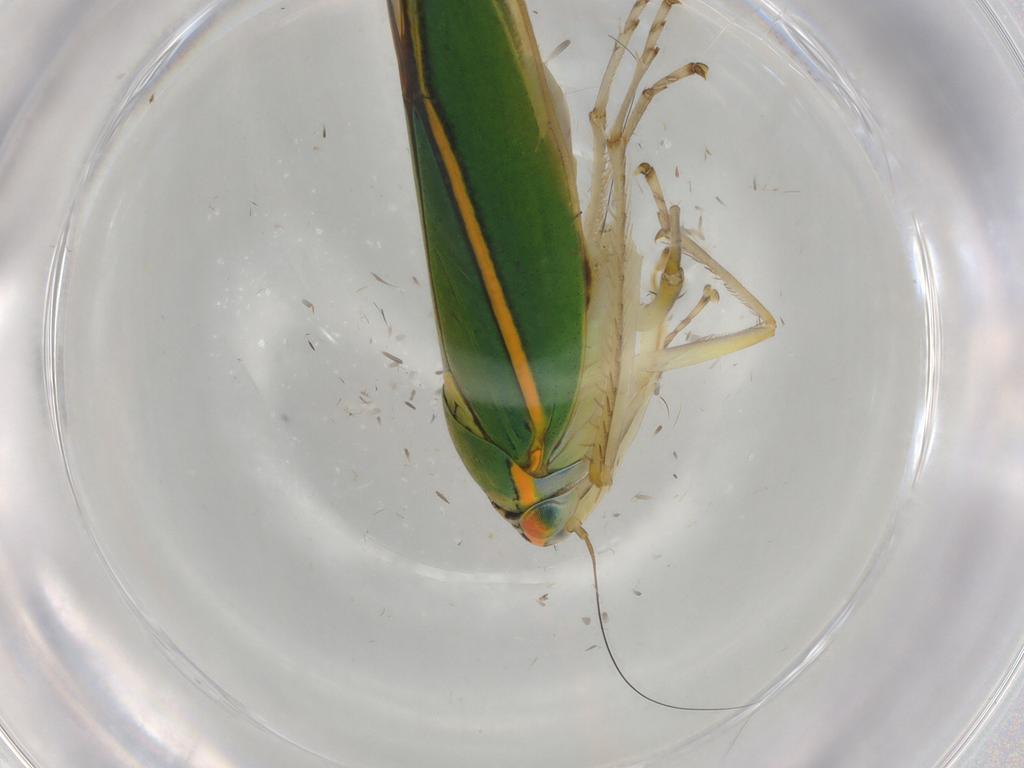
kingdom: Animalia
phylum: Arthropoda
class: Insecta
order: Hemiptera
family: Cicadellidae
